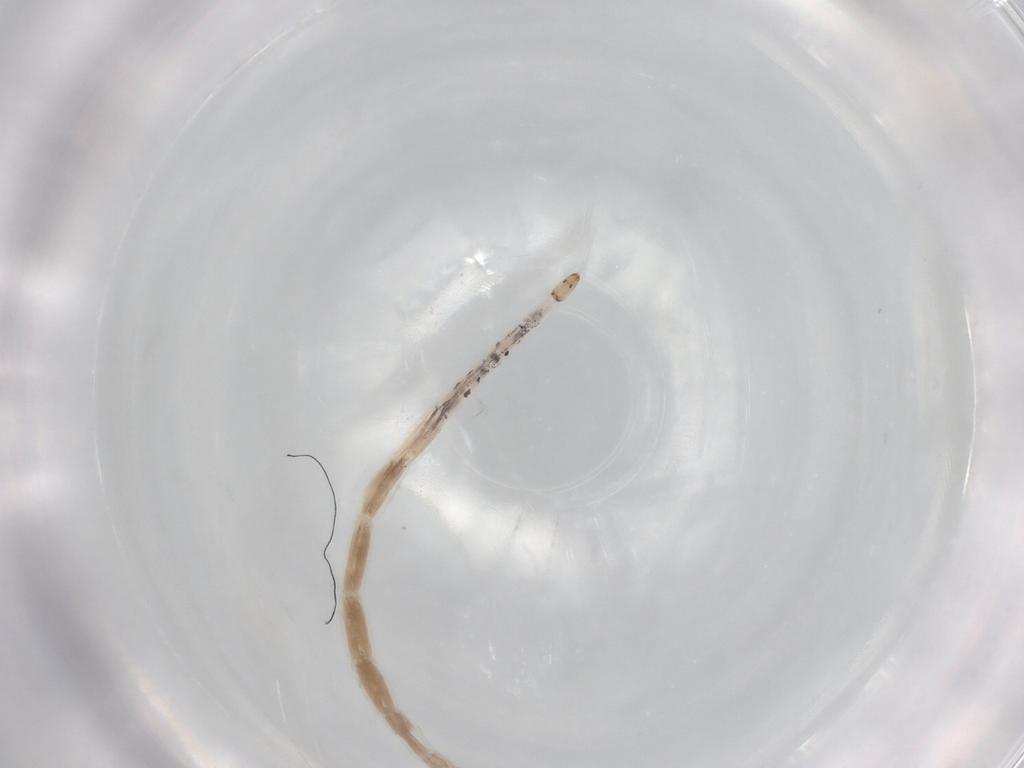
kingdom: Animalia
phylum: Arthropoda
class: Insecta
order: Diptera
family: Ceratopogonidae
